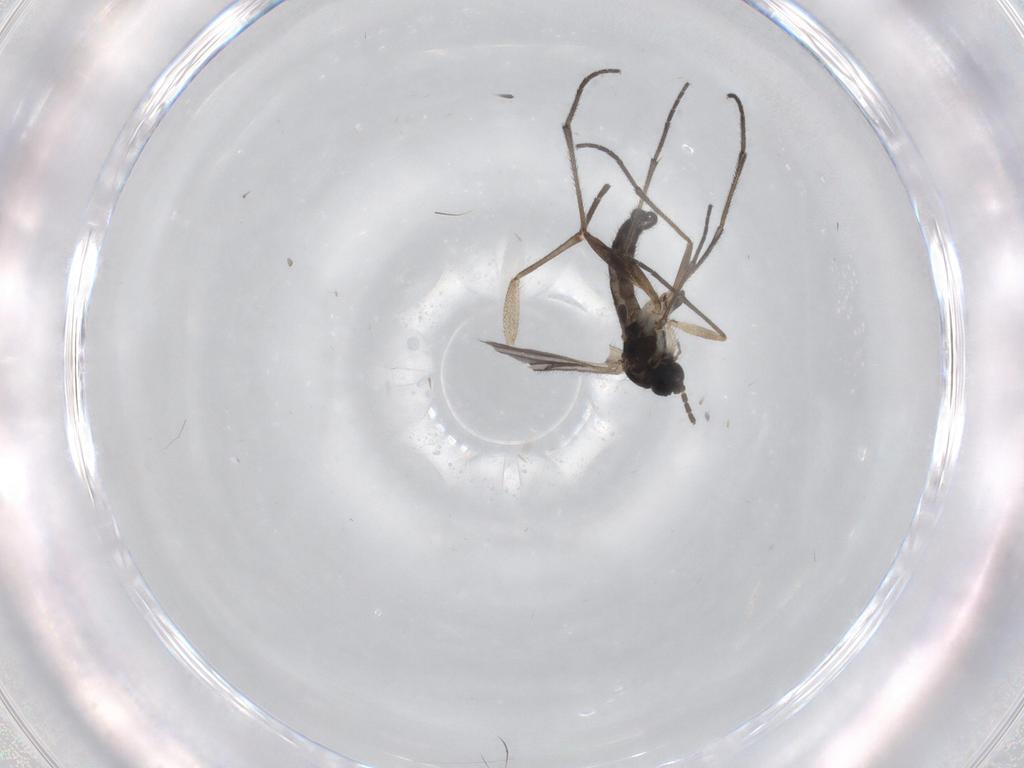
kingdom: Animalia
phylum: Arthropoda
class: Insecta
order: Diptera
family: Sciaridae
